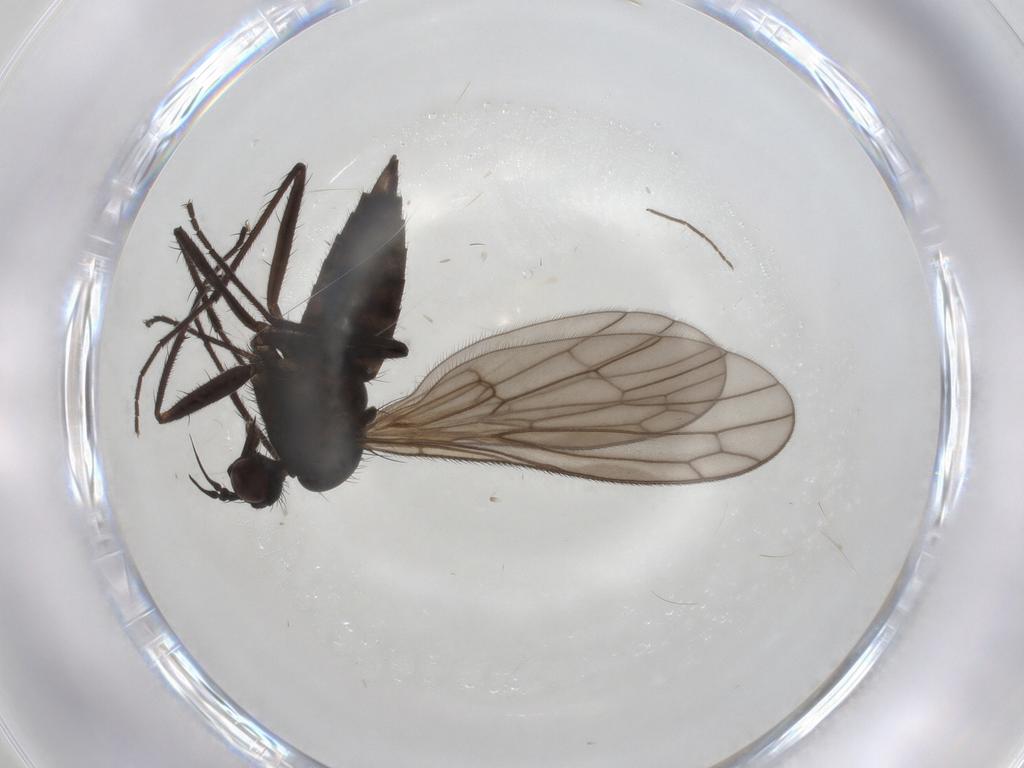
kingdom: Animalia
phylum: Arthropoda
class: Insecta
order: Diptera
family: Empididae
